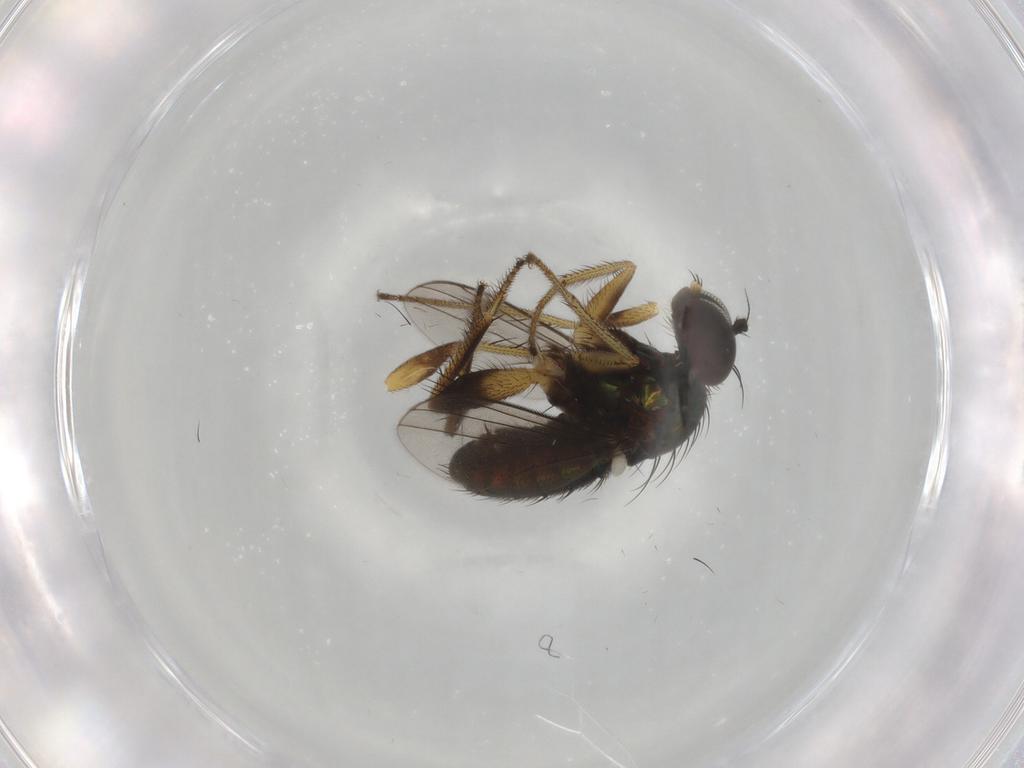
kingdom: Animalia
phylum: Arthropoda
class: Insecta
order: Diptera
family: Dolichopodidae
